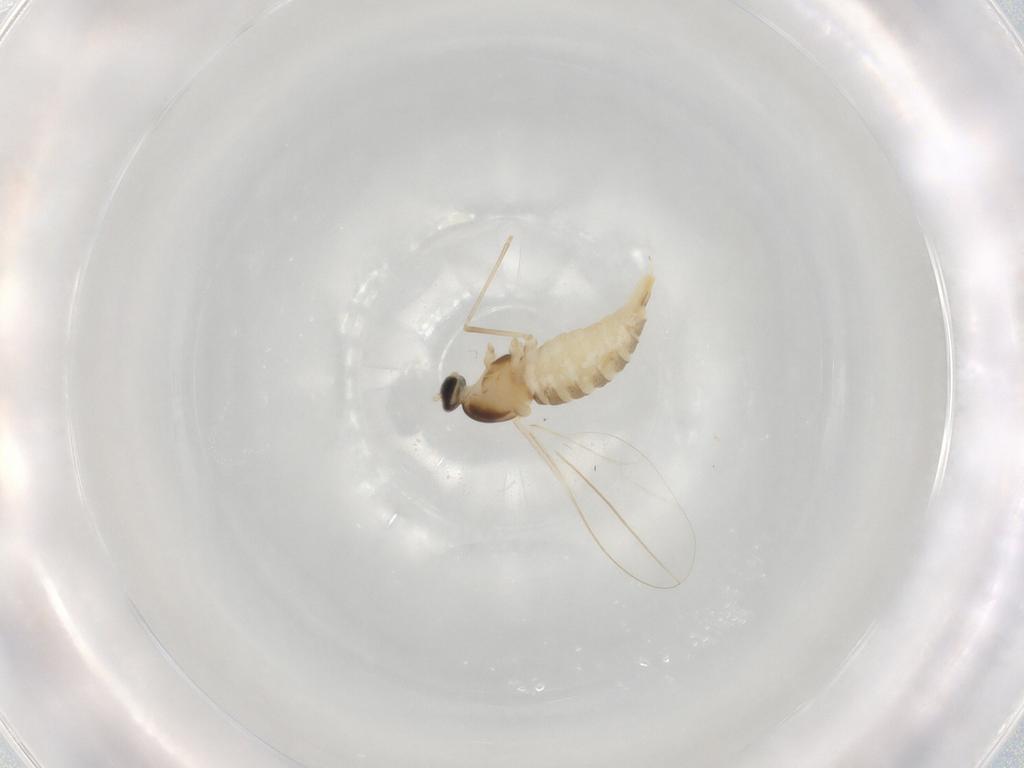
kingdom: Animalia
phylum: Arthropoda
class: Insecta
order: Diptera
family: Cecidomyiidae
